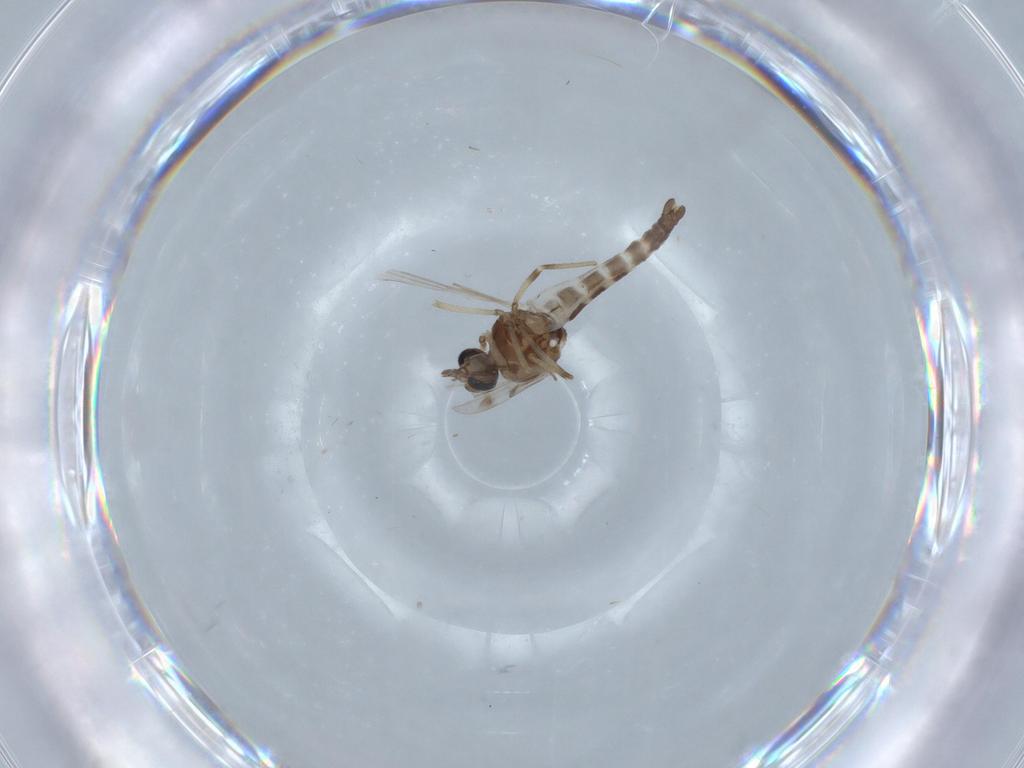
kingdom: Animalia
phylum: Arthropoda
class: Insecta
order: Diptera
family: Ceratopogonidae
